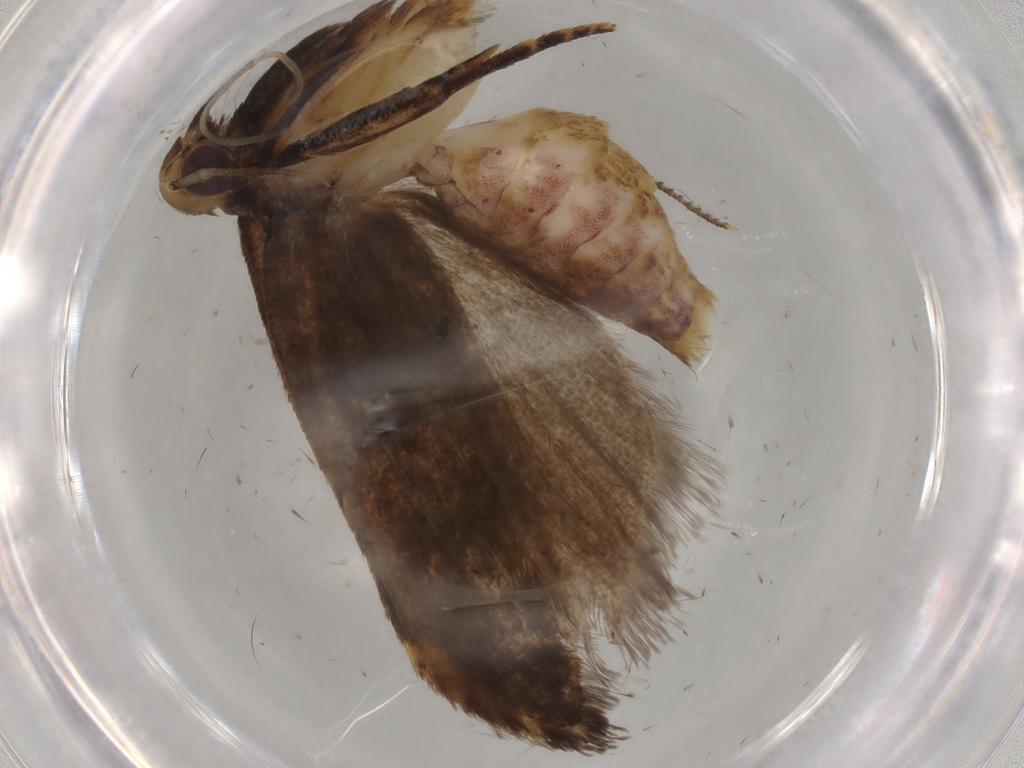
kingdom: Animalia
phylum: Arthropoda
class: Insecta
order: Lepidoptera
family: Gelechiidae
